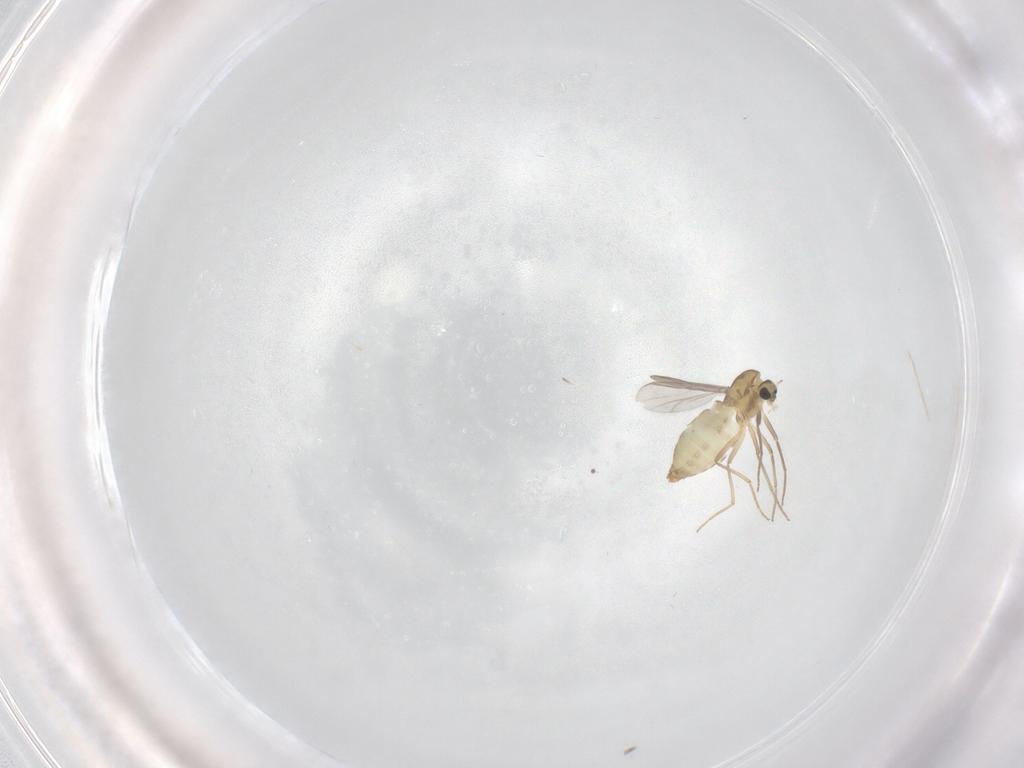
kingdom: Animalia
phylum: Arthropoda
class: Insecta
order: Diptera
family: Chironomidae
